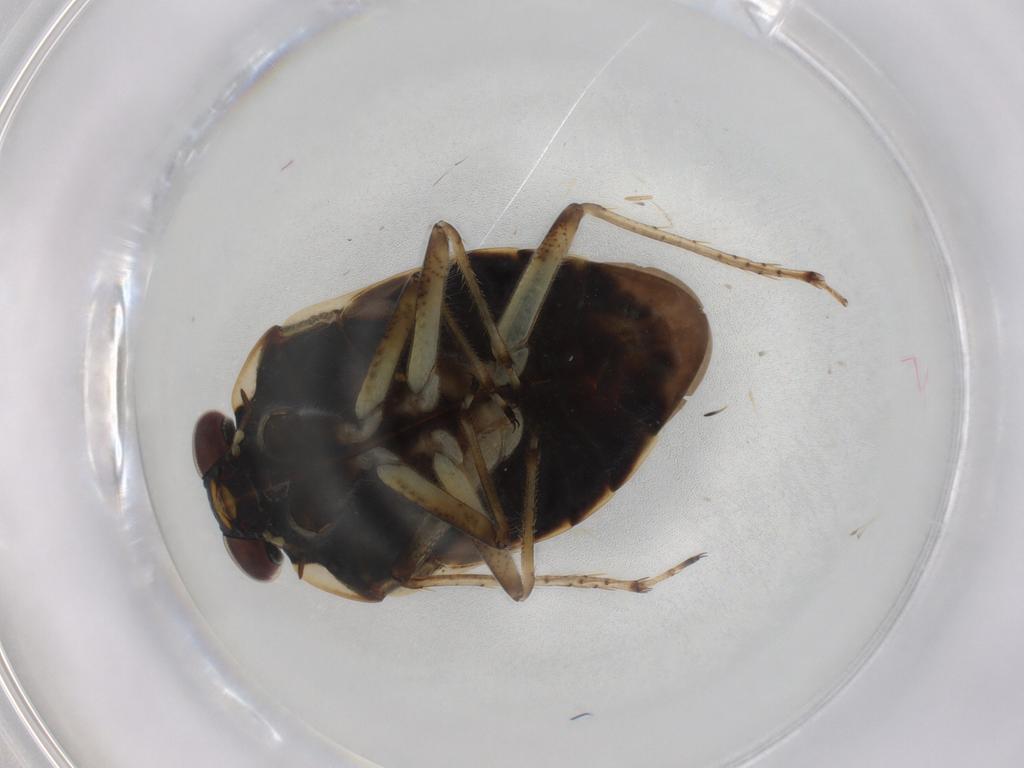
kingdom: Animalia
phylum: Arthropoda
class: Insecta
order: Hemiptera
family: Ochteridae
